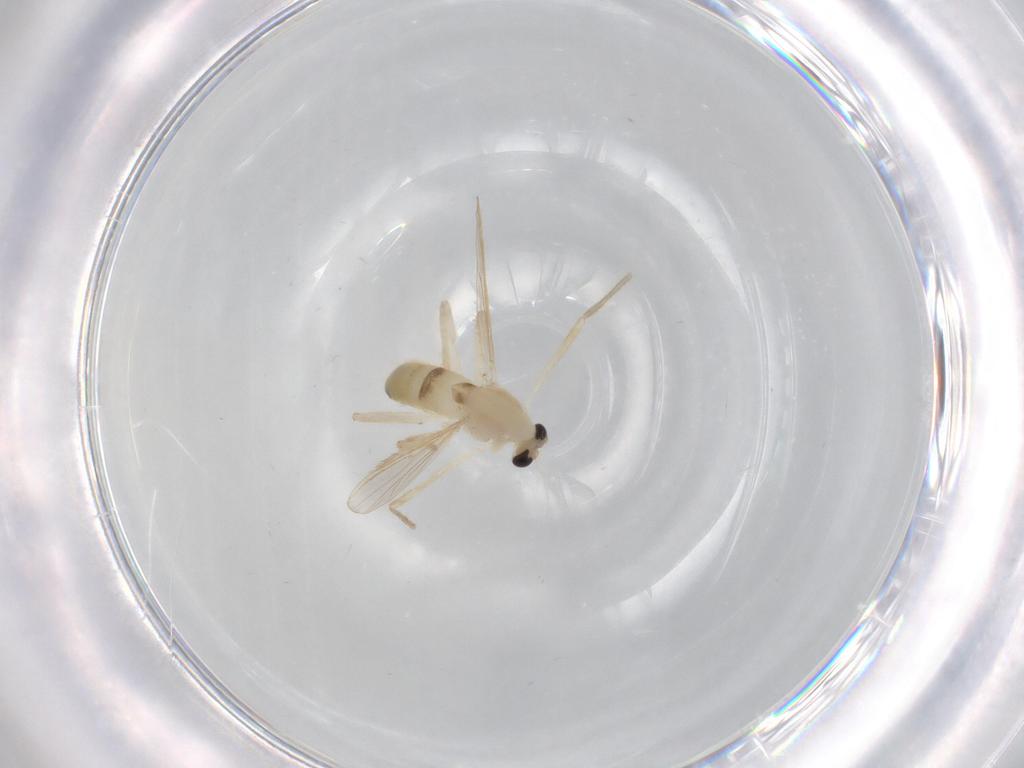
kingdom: Animalia
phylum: Arthropoda
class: Insecta
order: Diptera
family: Chironomidae
